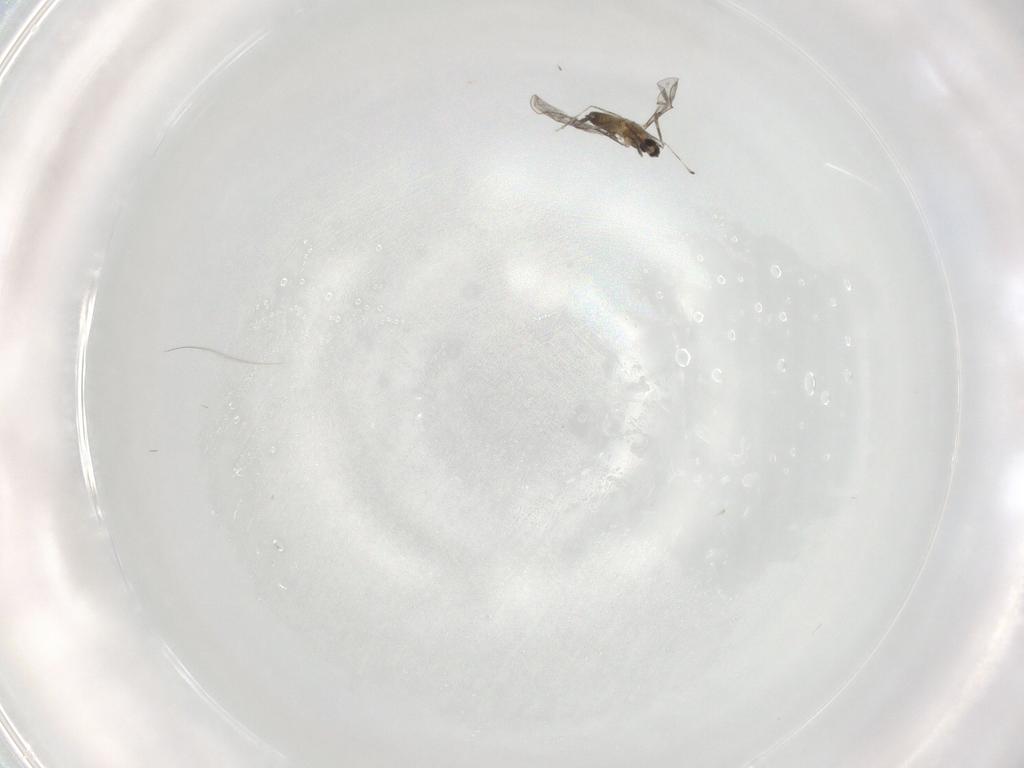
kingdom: Animalia
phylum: Arthropoda
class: Insecta
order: Diptera
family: Cecidomyiidae
